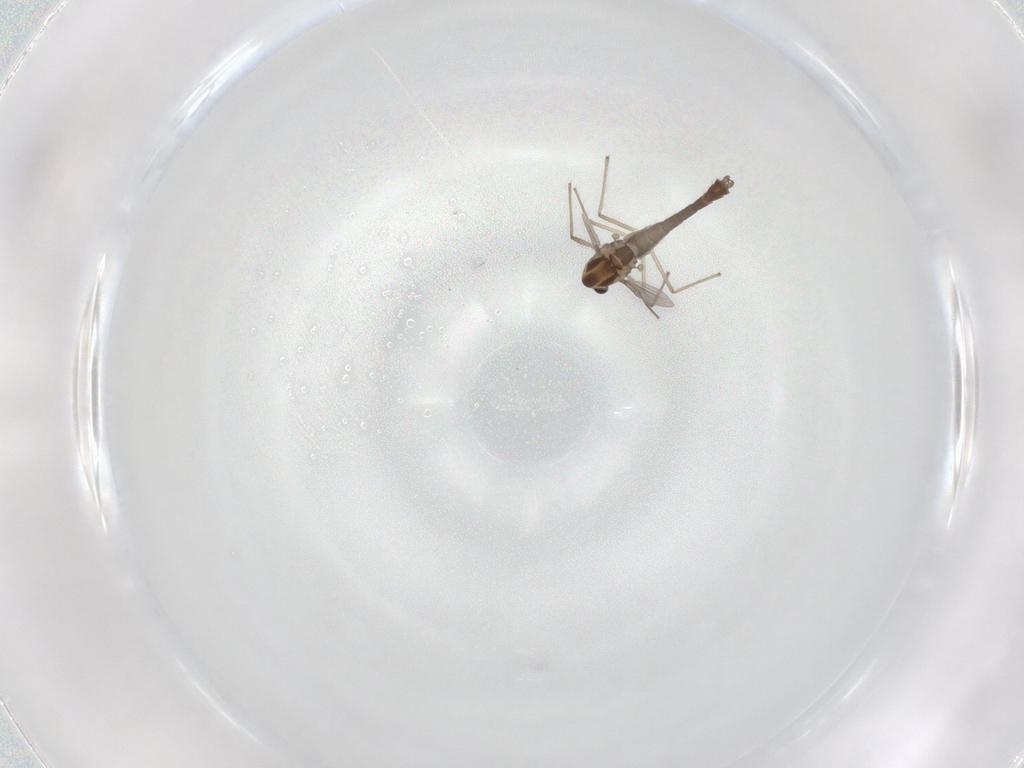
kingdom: Animalia
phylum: Arthropoda
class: Insecta
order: Diptera
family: Chironomidae
